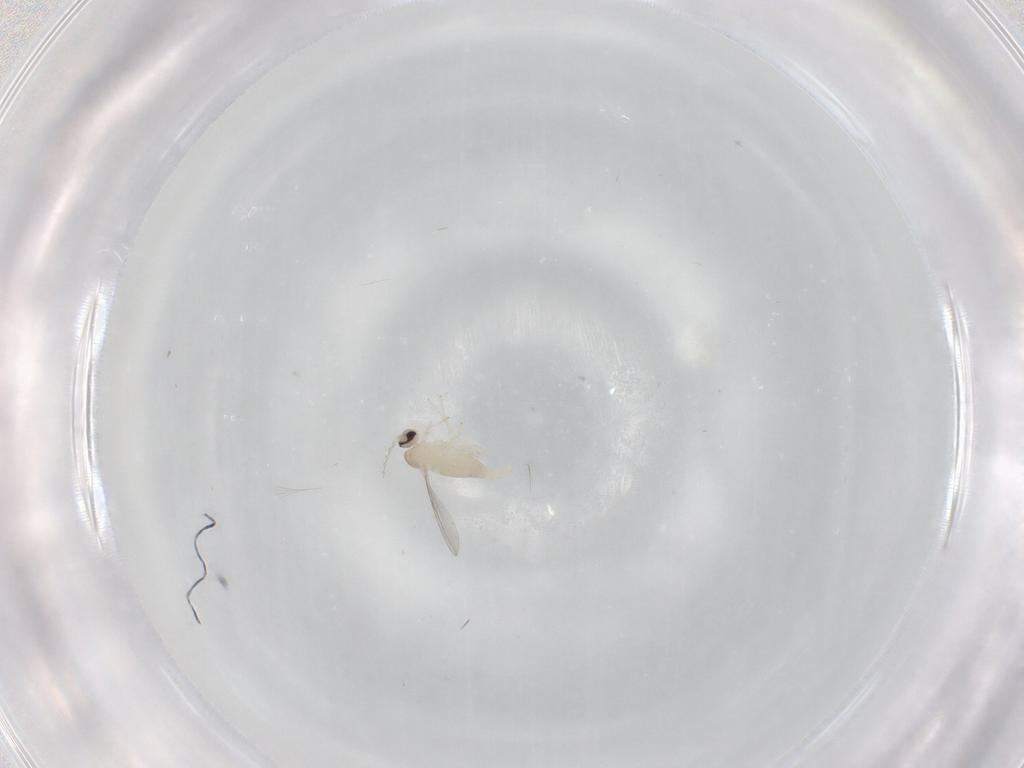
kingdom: Animalia
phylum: Arthropoda
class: Insecta
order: Diptera
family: Cecidomyiidae
